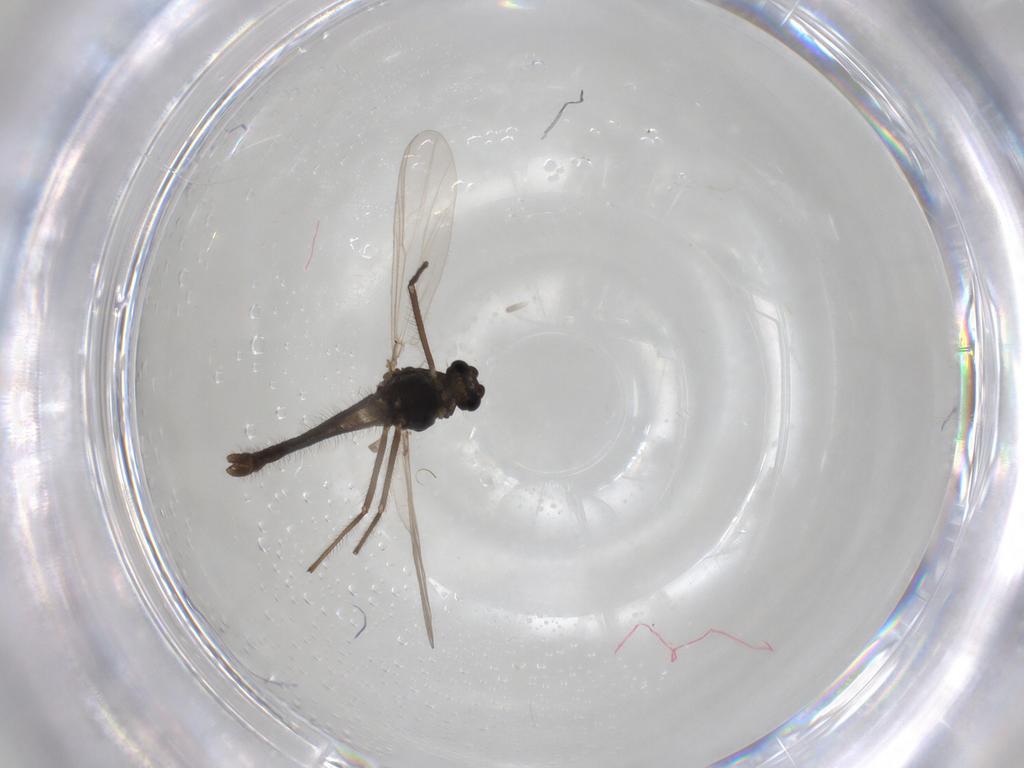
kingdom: Animalia
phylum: Arthropoda
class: Insecta
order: Diptera
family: Chironomidae
